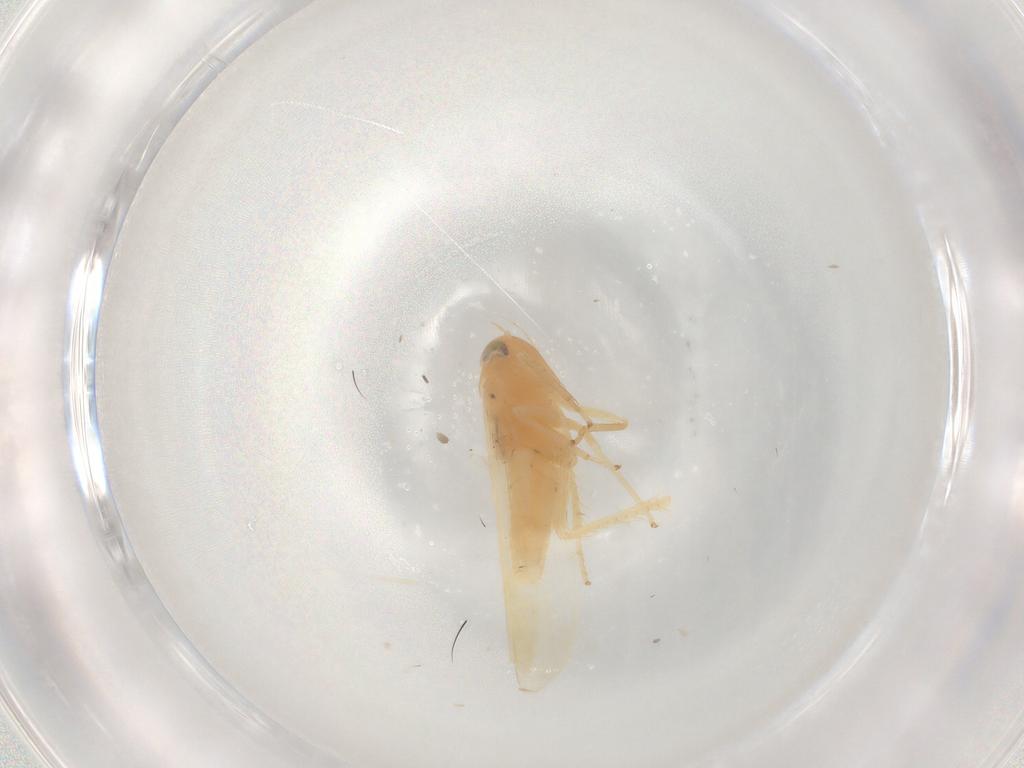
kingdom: Animalia
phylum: Arthropoda
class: Insecta
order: Hemiptera
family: Cicadellidae
